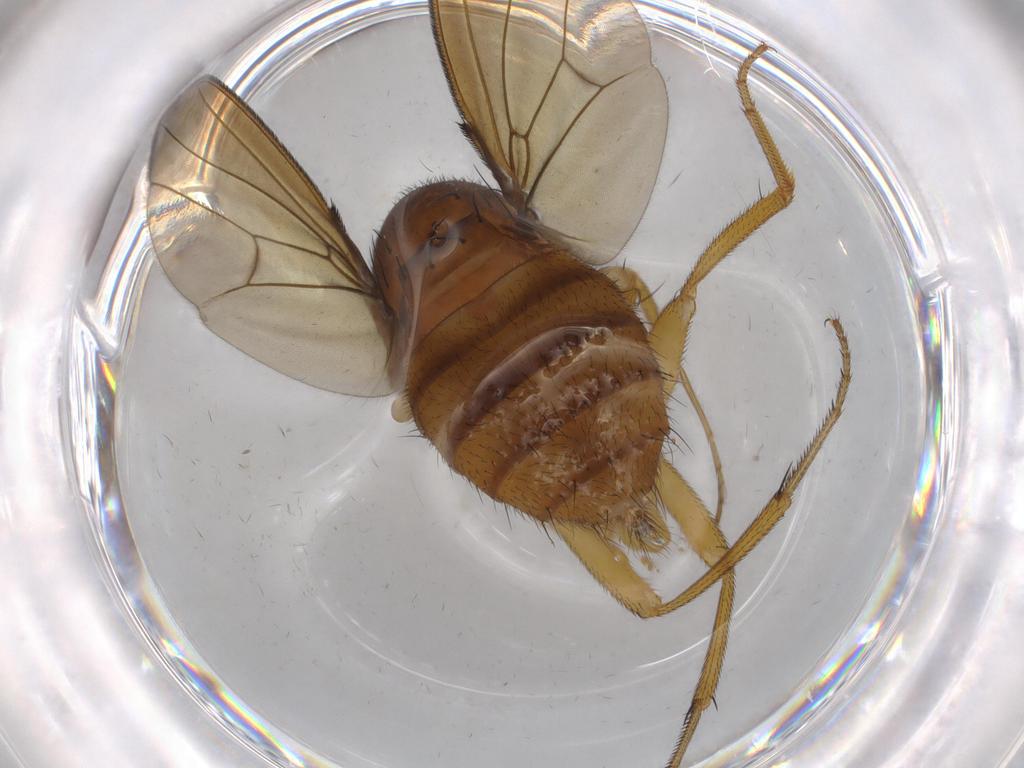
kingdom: Animalia
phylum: Arthropoda
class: Insecta
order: Diptera
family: Drosophilidae
